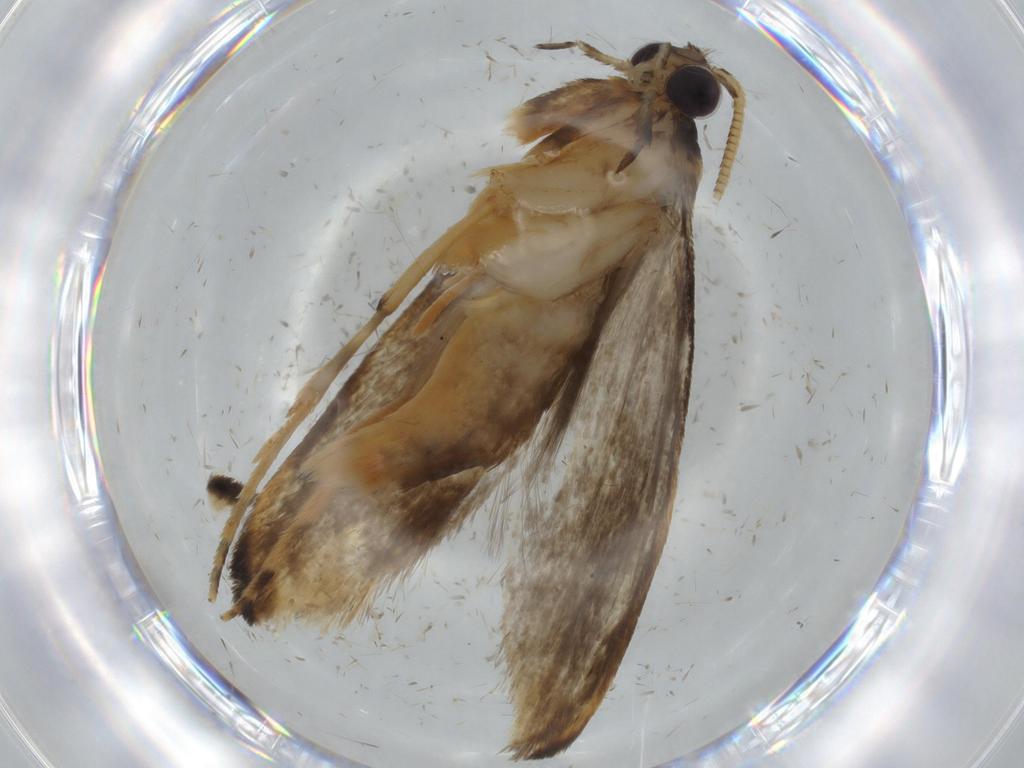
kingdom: Animalia
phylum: Arthropoda
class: Insecta
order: Lepidoptera
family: Tineidae
